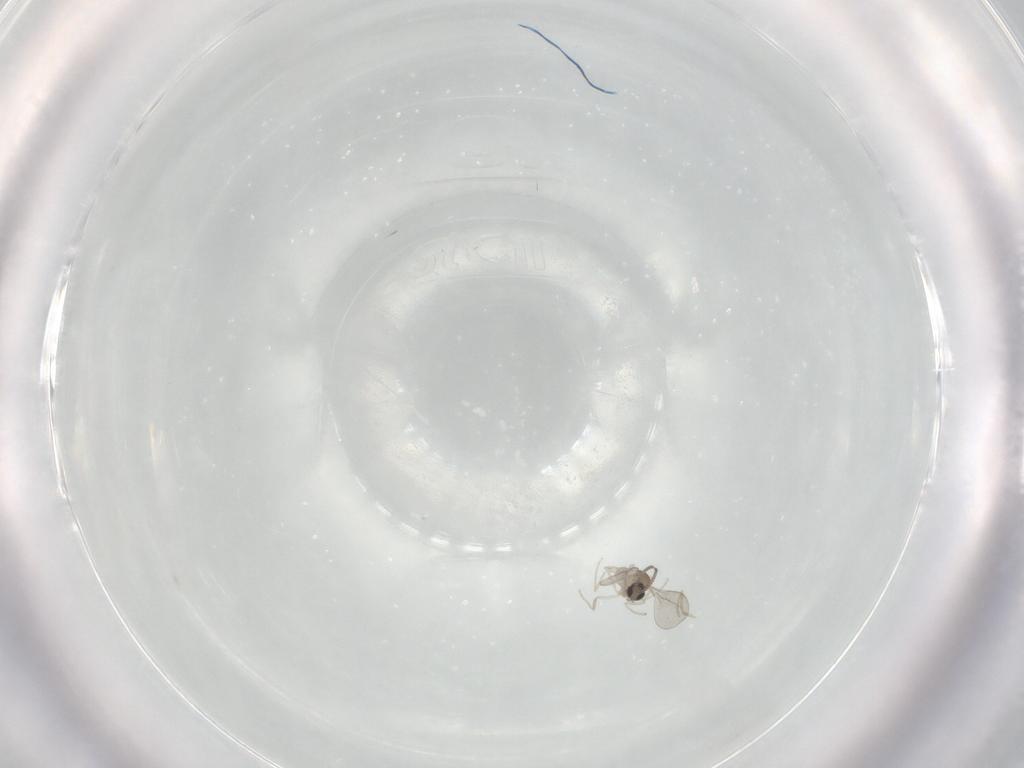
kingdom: Animalia
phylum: Arthropoda
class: Insecta
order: Diptera
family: Cecidomyiidae
